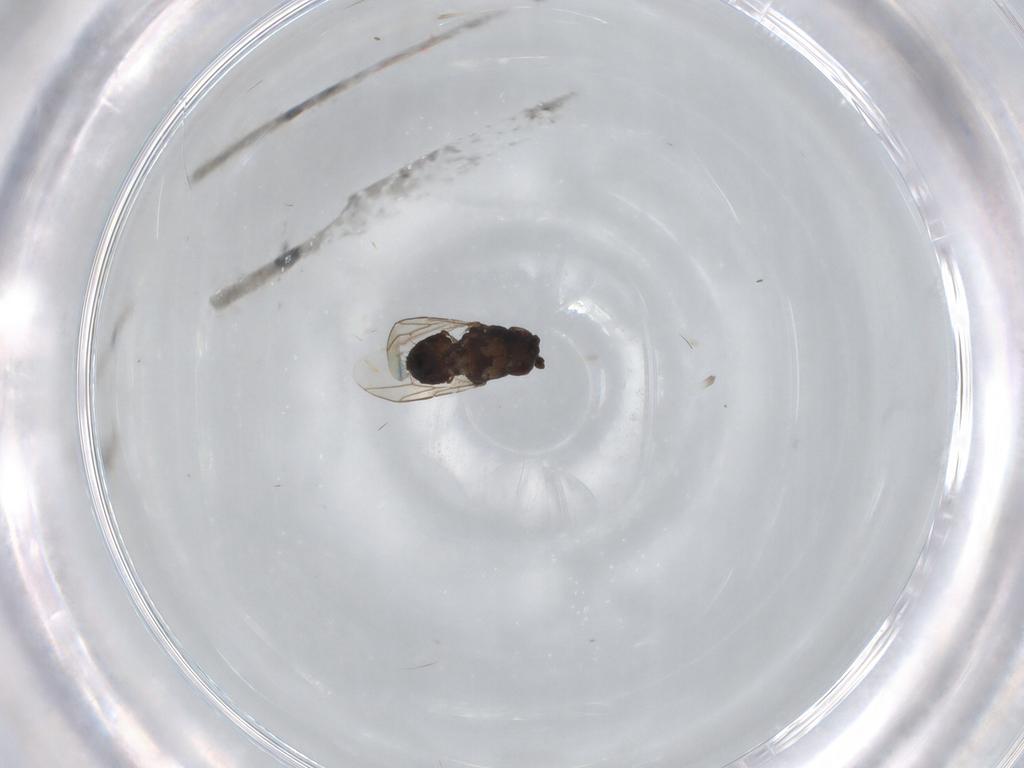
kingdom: Animalia
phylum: Arthropoda
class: Insecta
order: Diptera
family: Sphaeroceridae
